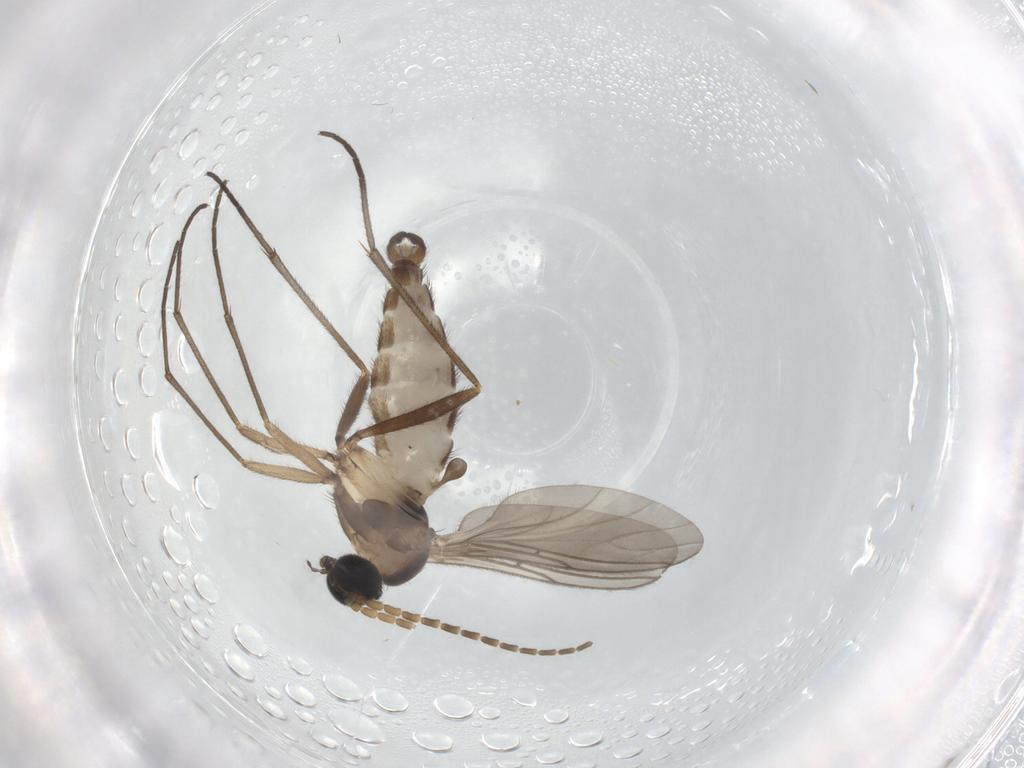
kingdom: Animalia
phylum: Arthropoda
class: Insecta
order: Diptera
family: Sciaridae
